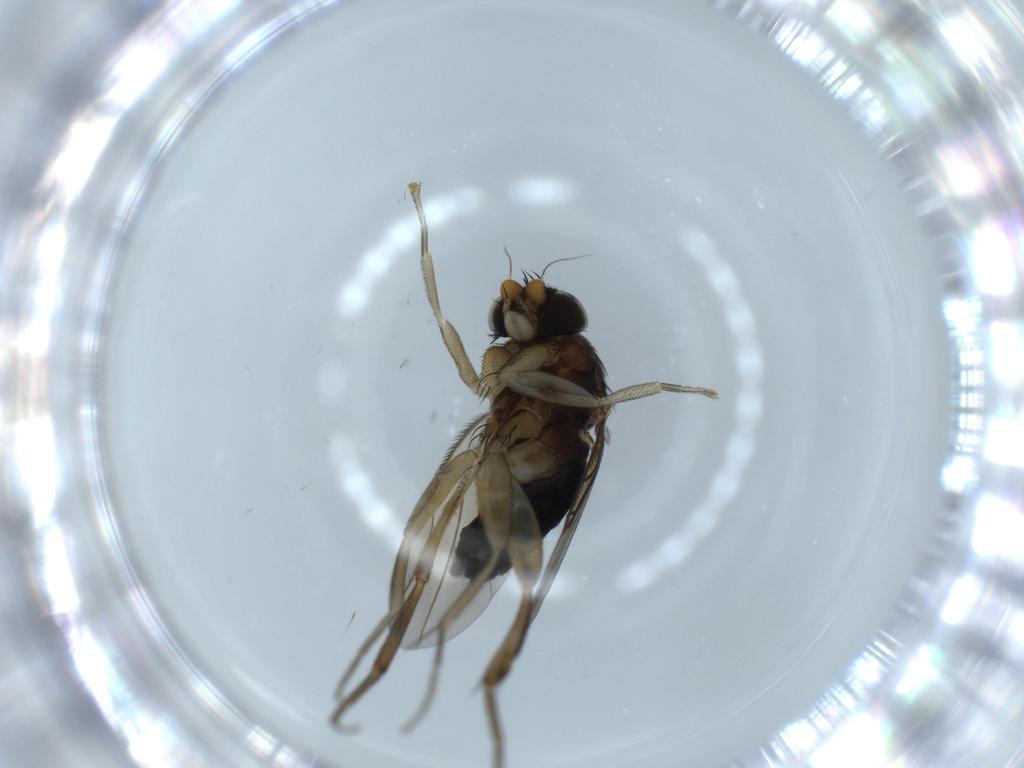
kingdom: Animalia
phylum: Arthropoda
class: Insecta
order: Diptera
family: Phoridae
